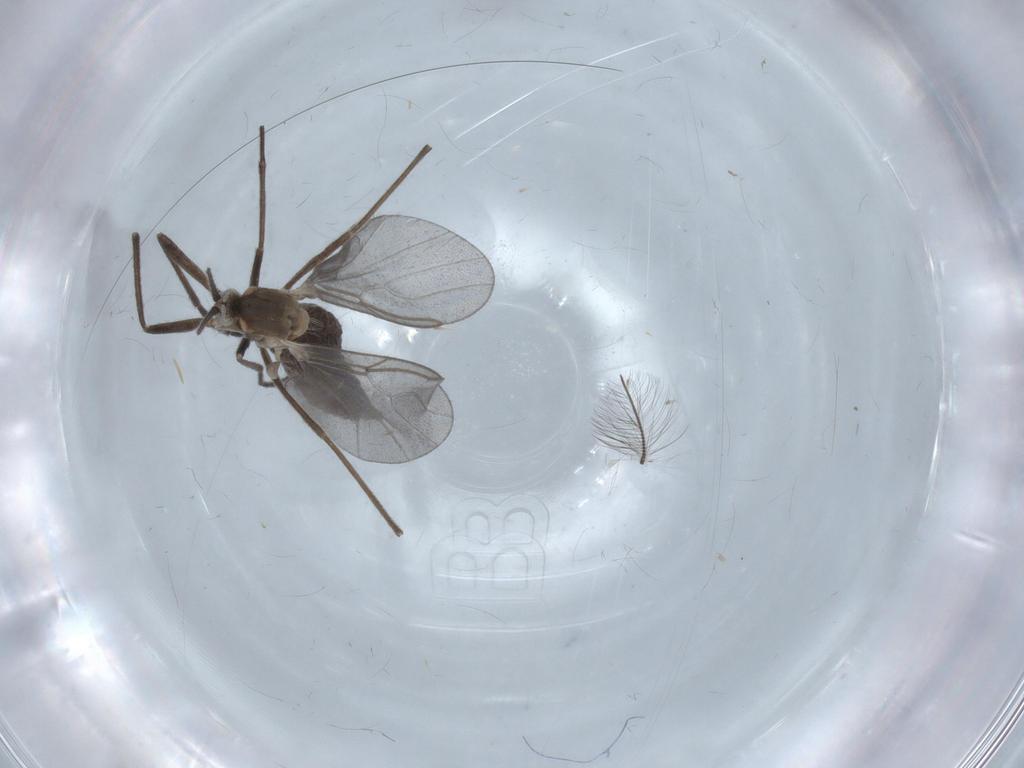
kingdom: Animalia
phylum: Arthropoda
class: Insecta
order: Diptera
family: Cecidomyiidae
